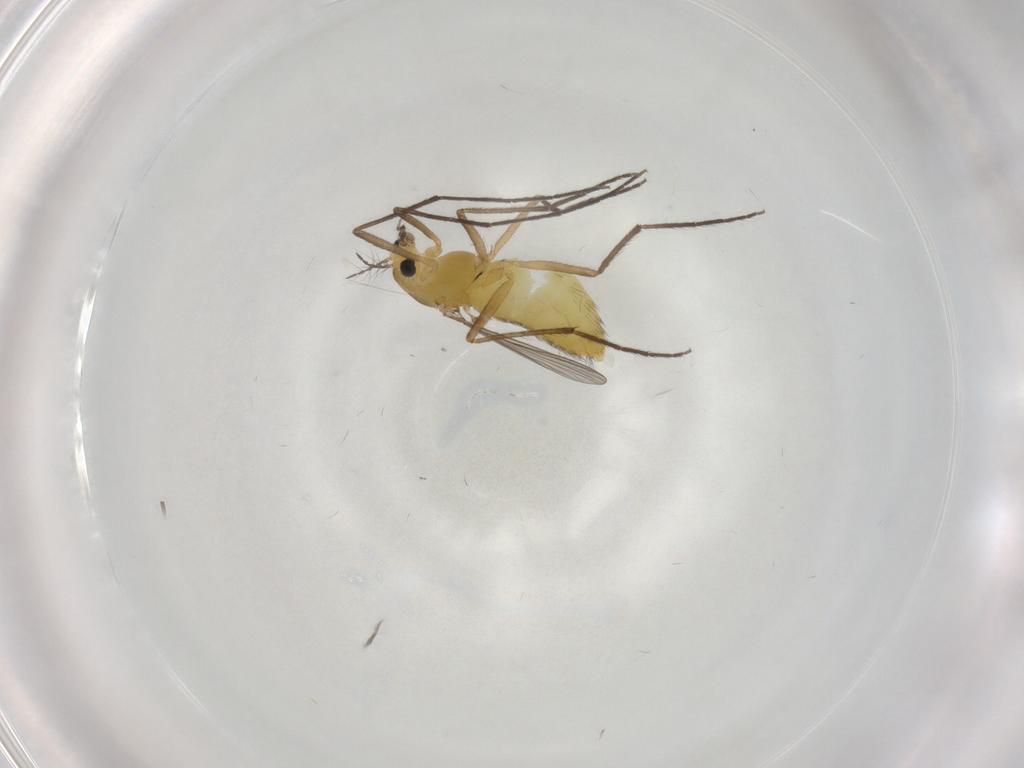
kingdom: Animalia
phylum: Arthropoda
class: Insecta
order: Diptera
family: Chironomidae
